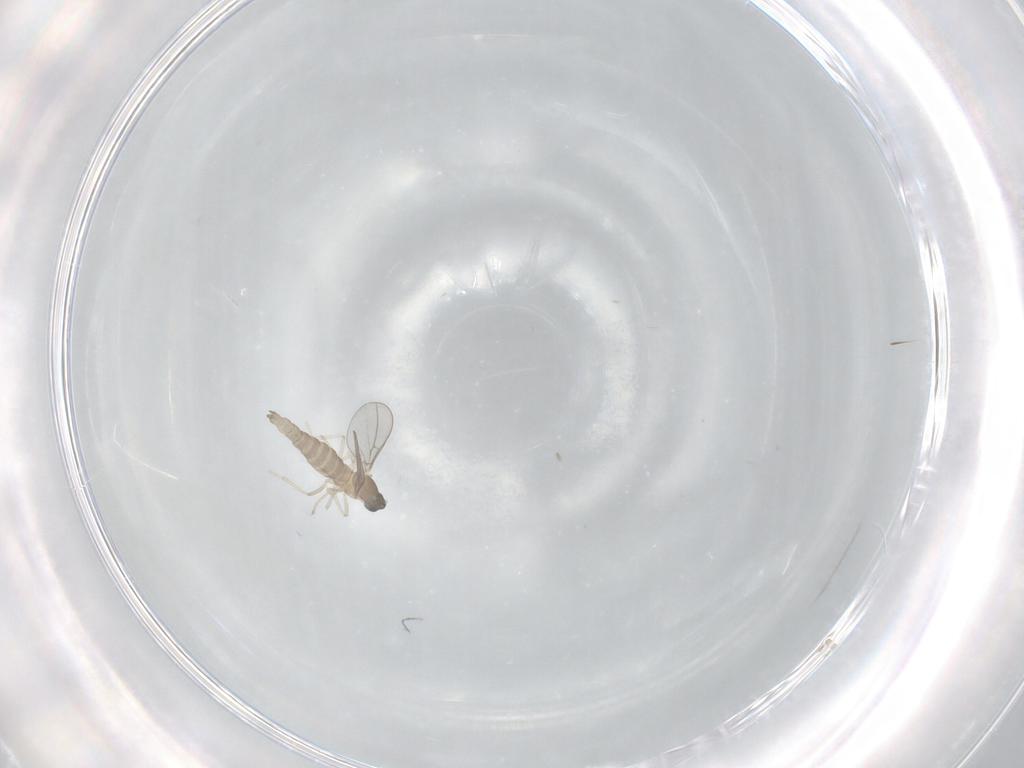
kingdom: Animalia
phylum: Arthropoda
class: Insecta
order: Diptera
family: Cecidomyiidae
